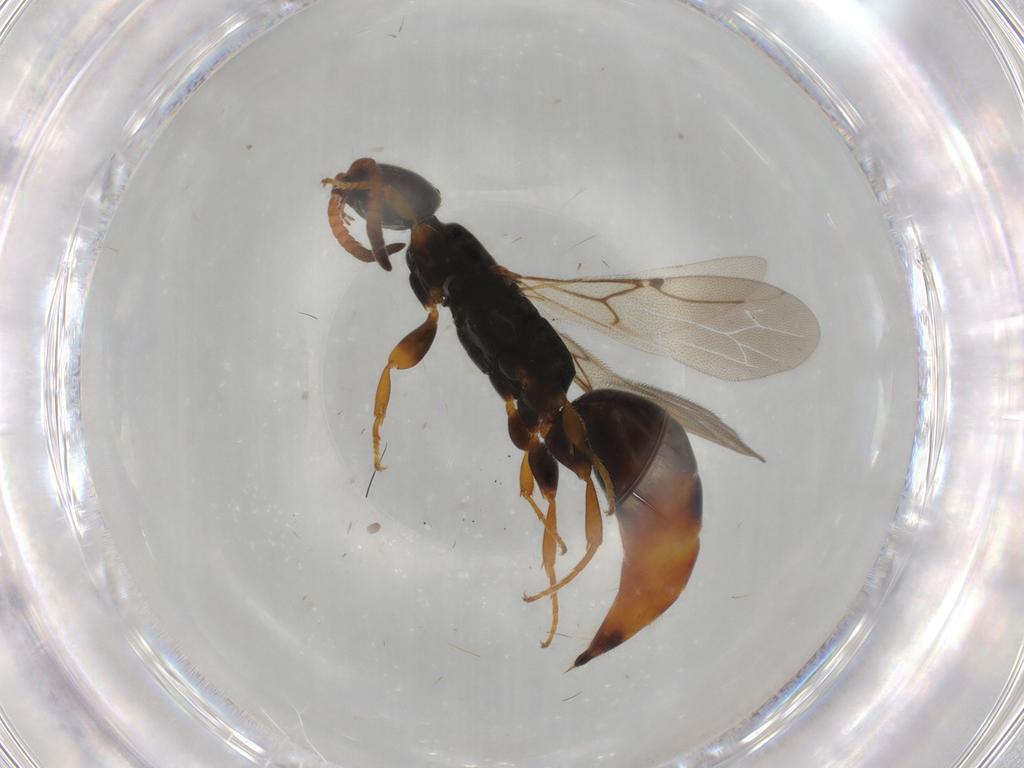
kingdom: Animalia
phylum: Arthropoda
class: Insecta
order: Hymenoptera
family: Bethylidae
